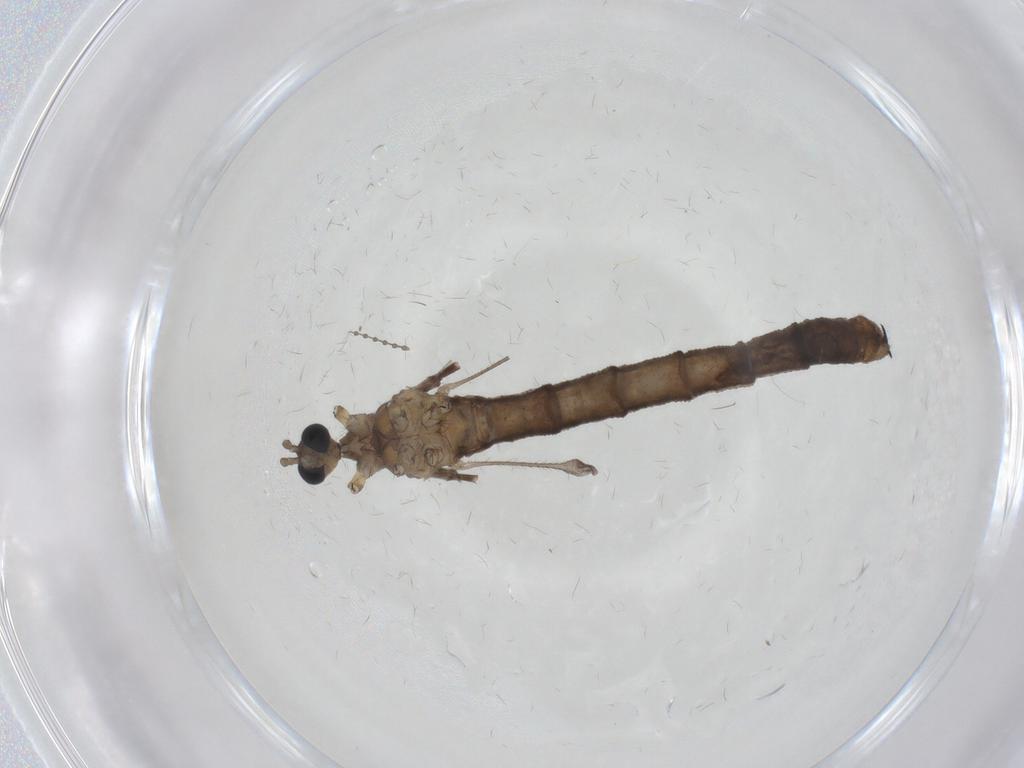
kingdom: Animalia
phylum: Arthropoda
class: Insecta
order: Diptera
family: Limoniidae
